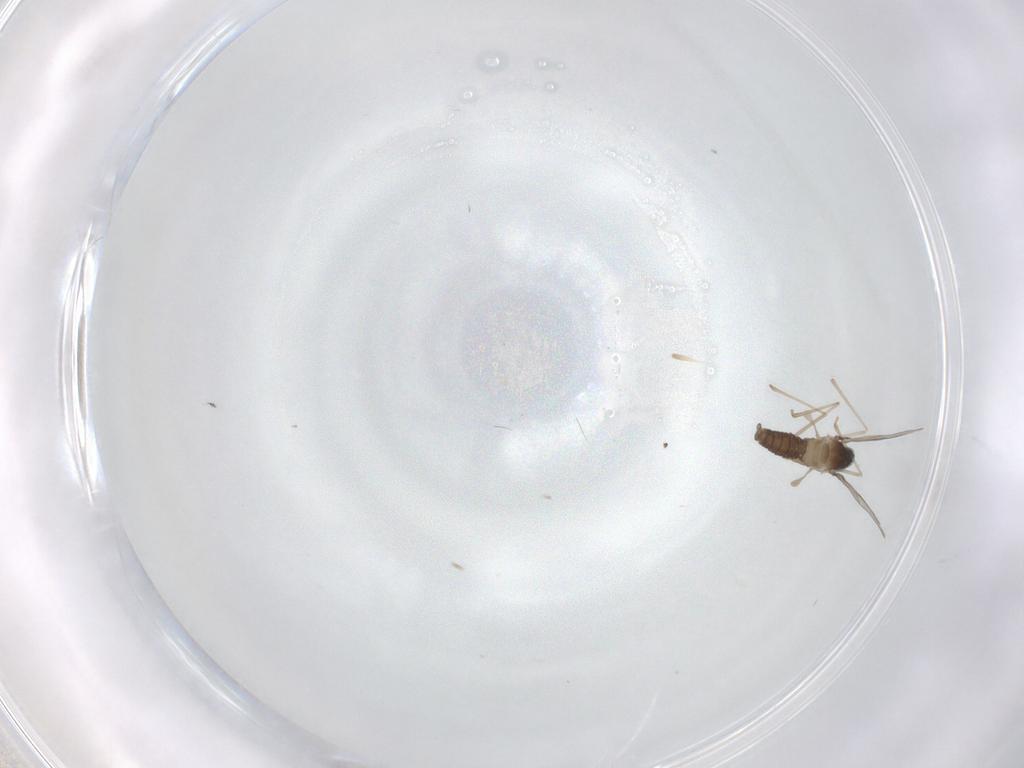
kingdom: Animalia
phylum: Arthropoda
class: Insecta
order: Diptera
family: Cecidomyiidae
